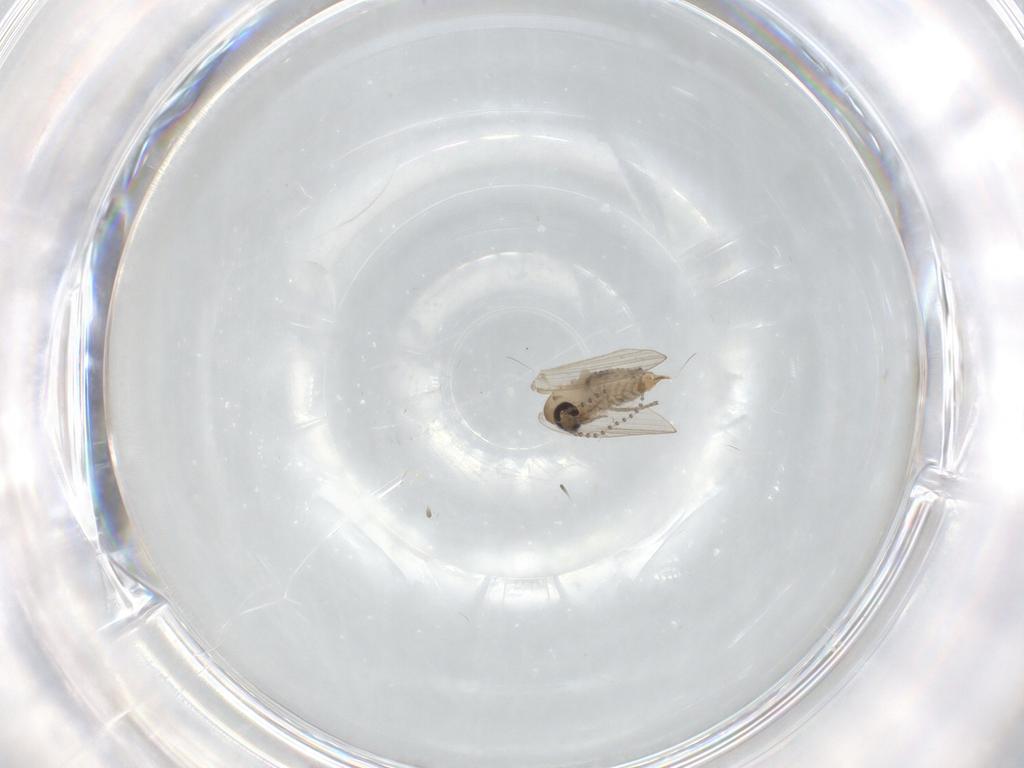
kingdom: Animalia
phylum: Arthropoda
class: Insecta
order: Diptera
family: Psychodidae
